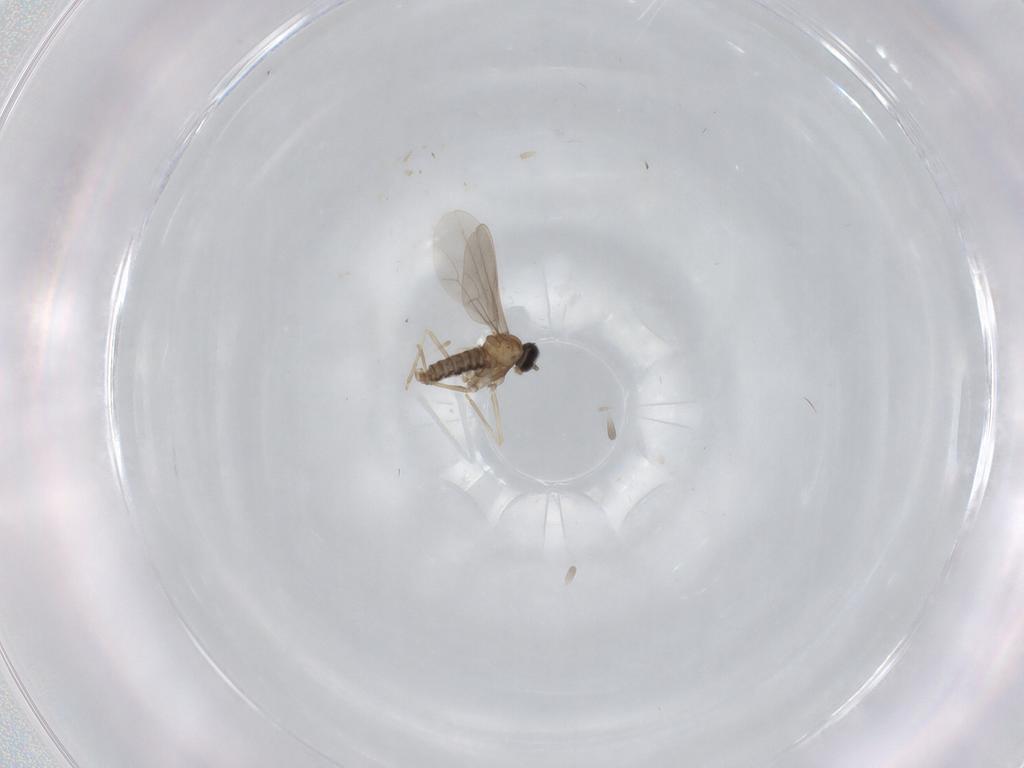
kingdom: Animalia
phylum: Arthropoda
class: Insecta
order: Diptera
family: Cecidomyiidae
